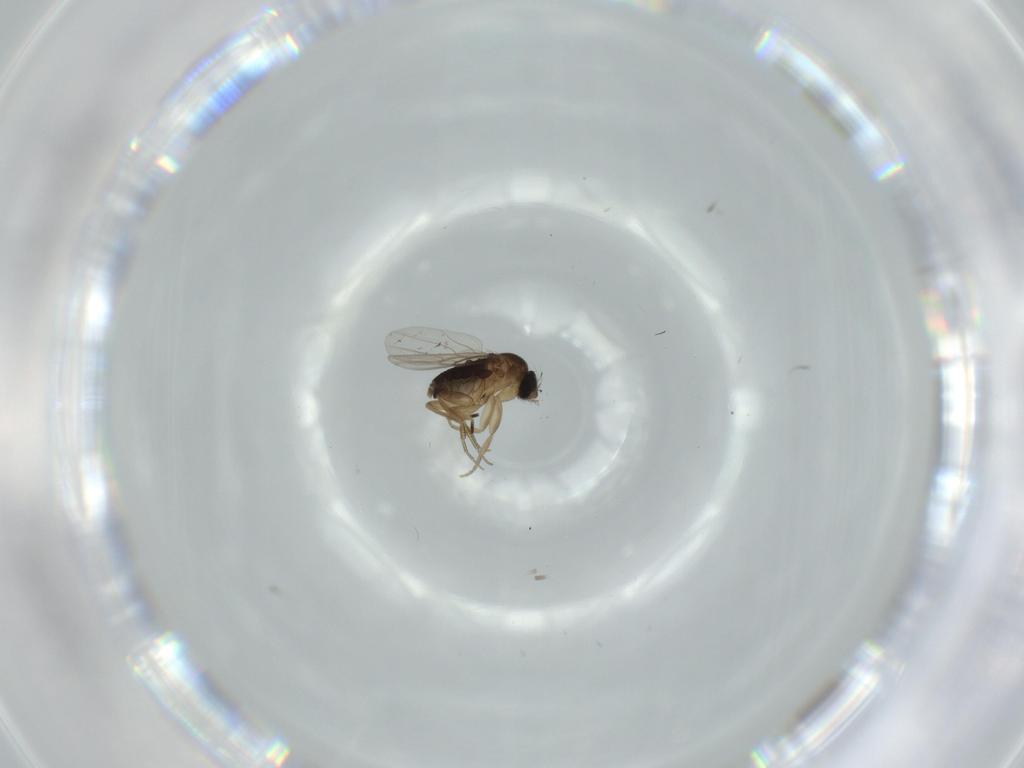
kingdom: Animalia
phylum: Arthropoda
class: Insecta
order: Diptera
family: Phoridae
